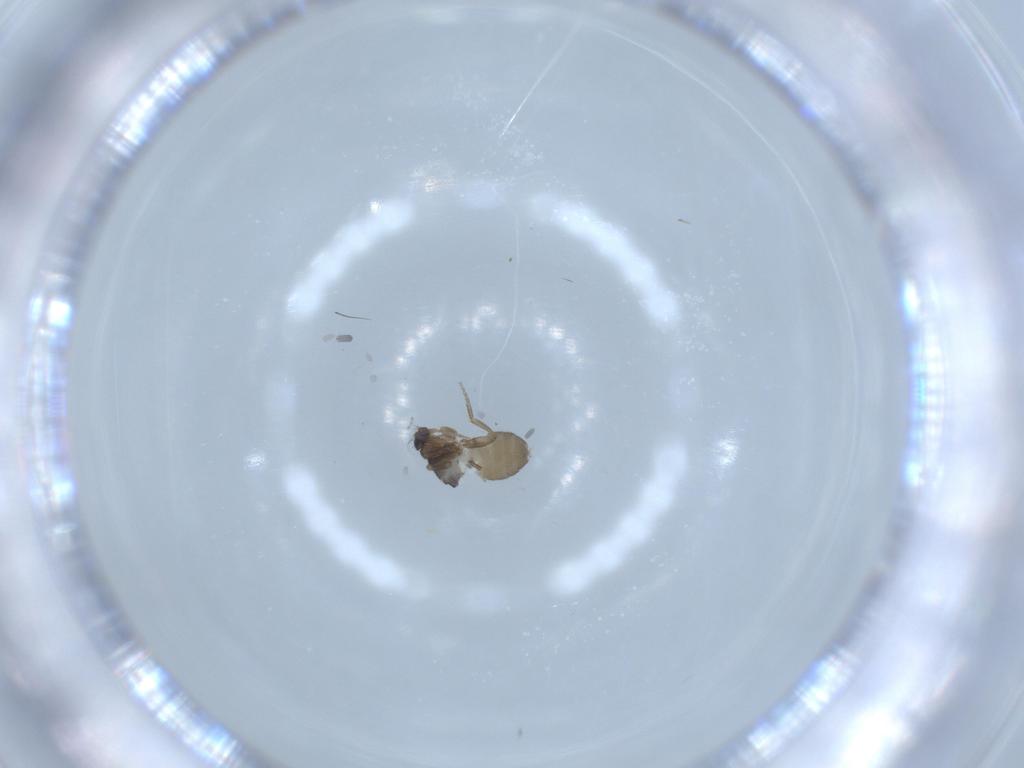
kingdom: Animalia
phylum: Arthropoda
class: Insecta
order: Diptera
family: Phoridae
